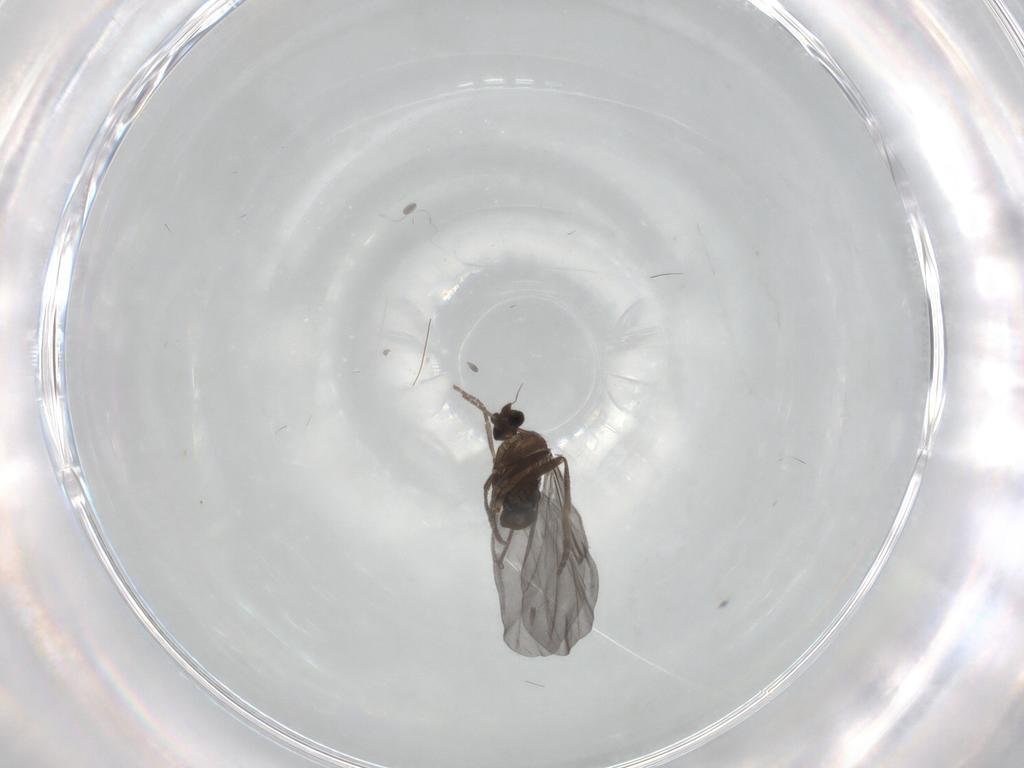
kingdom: Animalia
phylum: Arthropoda
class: Insecta
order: Diptera
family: Phoridae
